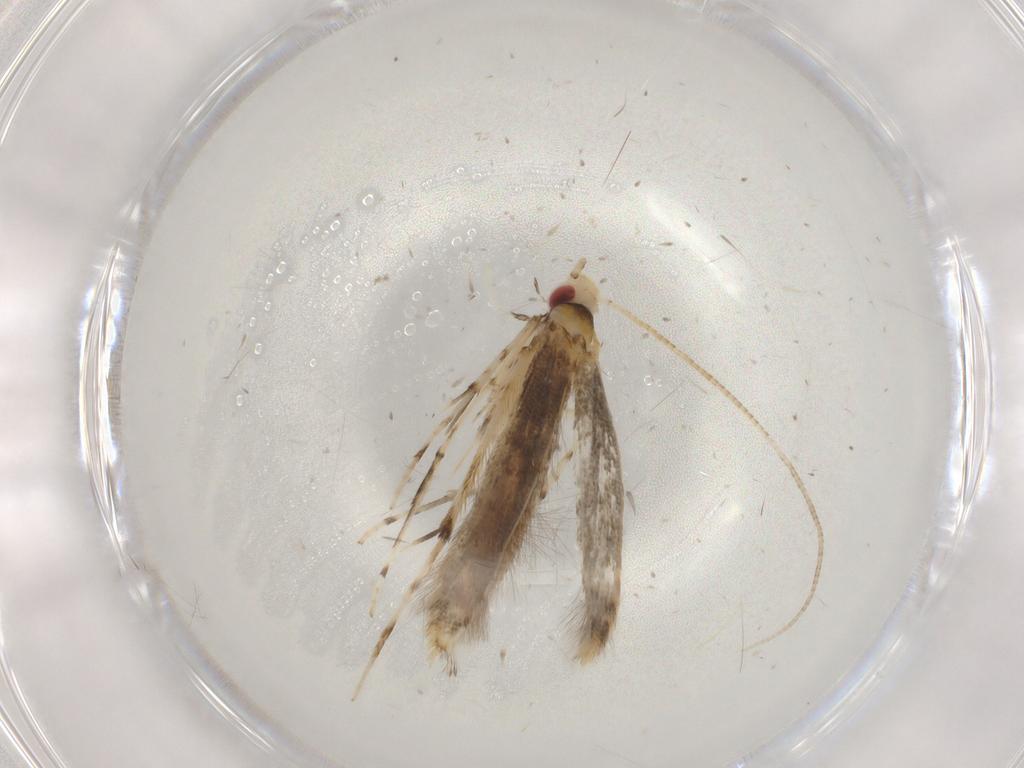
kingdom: Animalia
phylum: Arthropoda
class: Insecta
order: Lepidoptera
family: Gracillariidae
